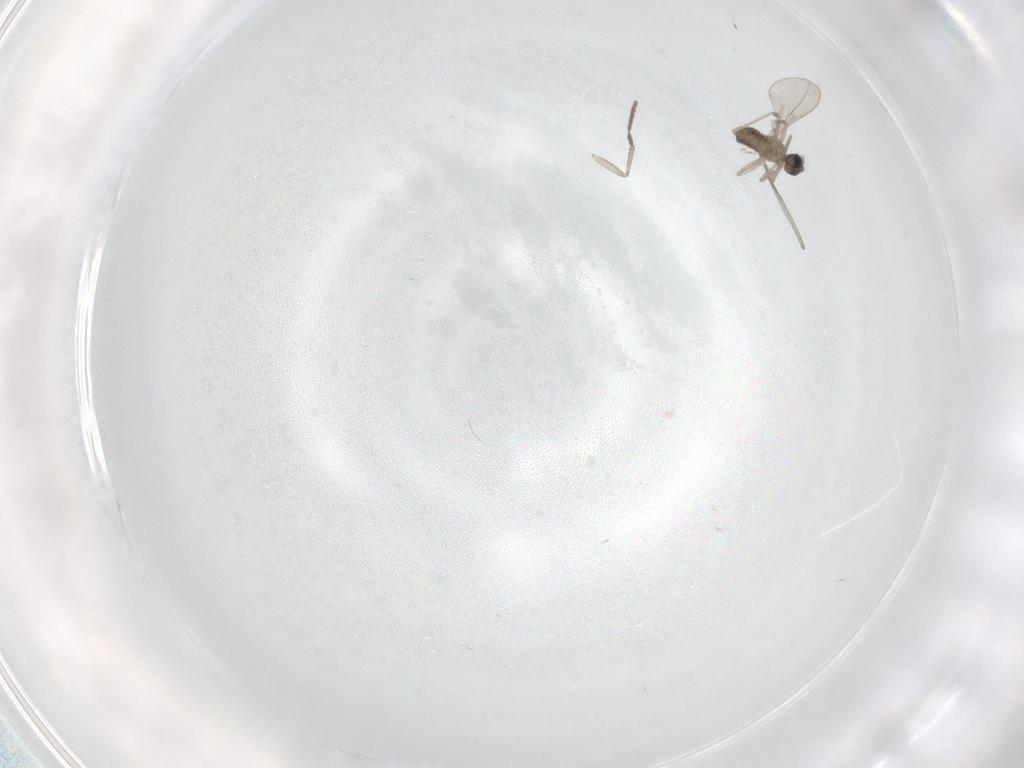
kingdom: Animalia
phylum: Arthropoda
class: Insecta
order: Diptera
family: Cecidomyiidae
